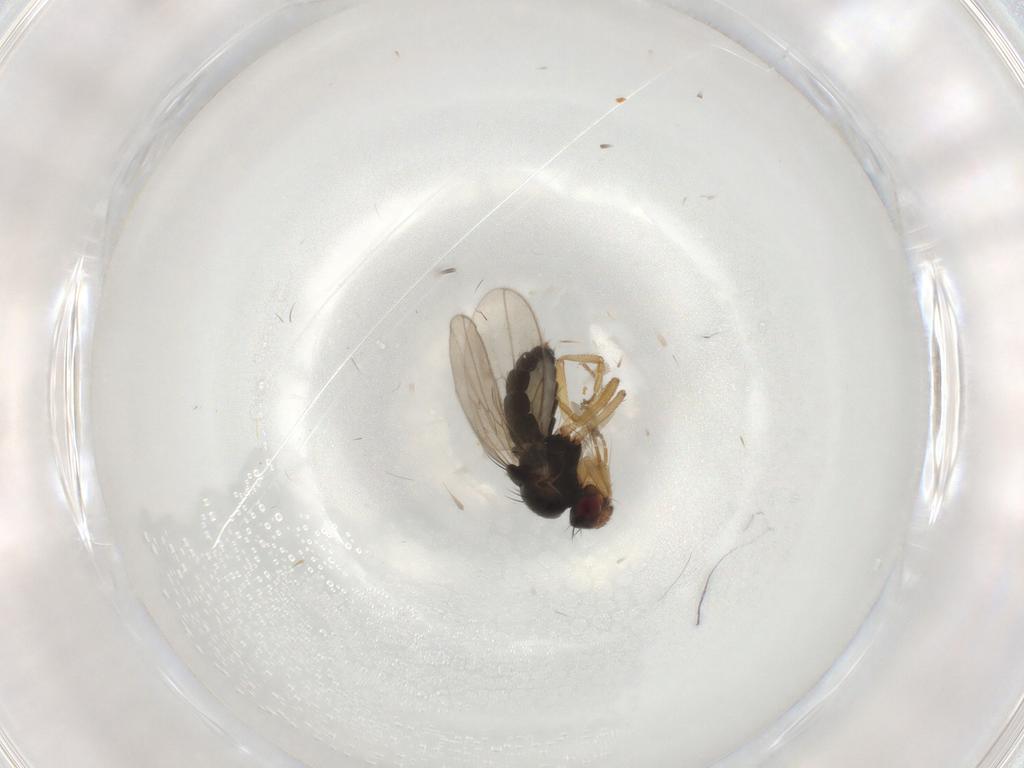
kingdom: Animalia
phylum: Arthropoda
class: Insecta
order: Diptera
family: Sphaeroceridae
